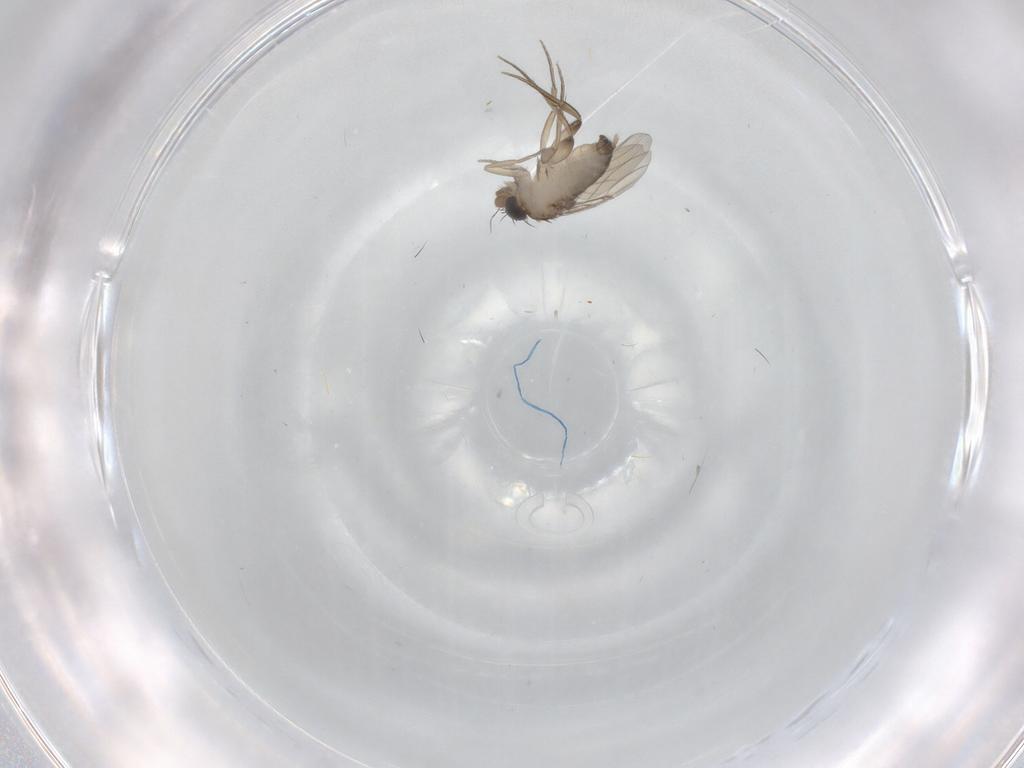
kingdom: Animalia
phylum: Arthropoda
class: Insecta
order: Diptera
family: Phoridae
